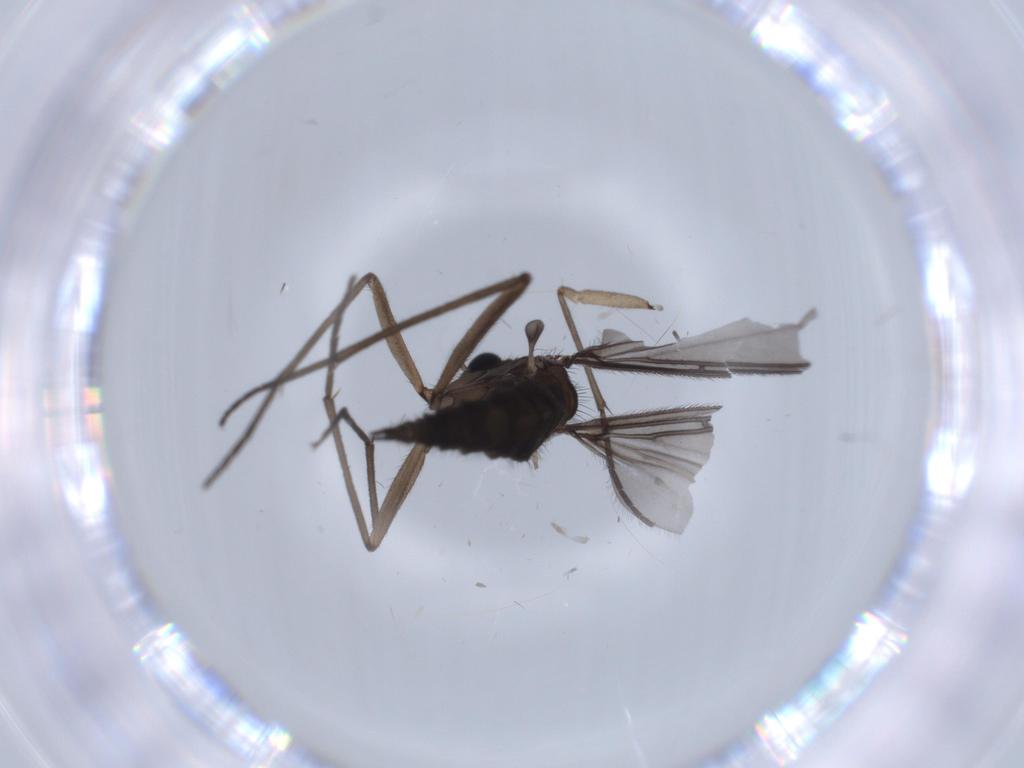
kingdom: Animalia
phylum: Arthropoda
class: Insecta
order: Diptera
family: Sciaridae
